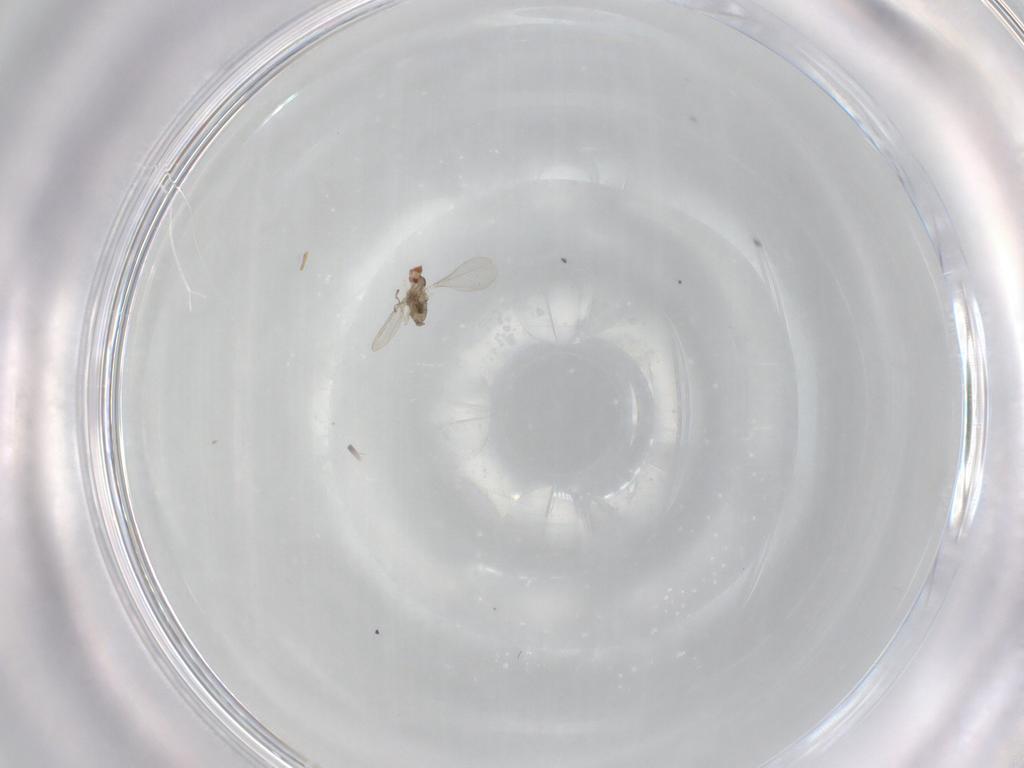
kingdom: Animalia
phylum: Arthropoda
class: Insecta
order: Diptera
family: Cecidomyiidae
